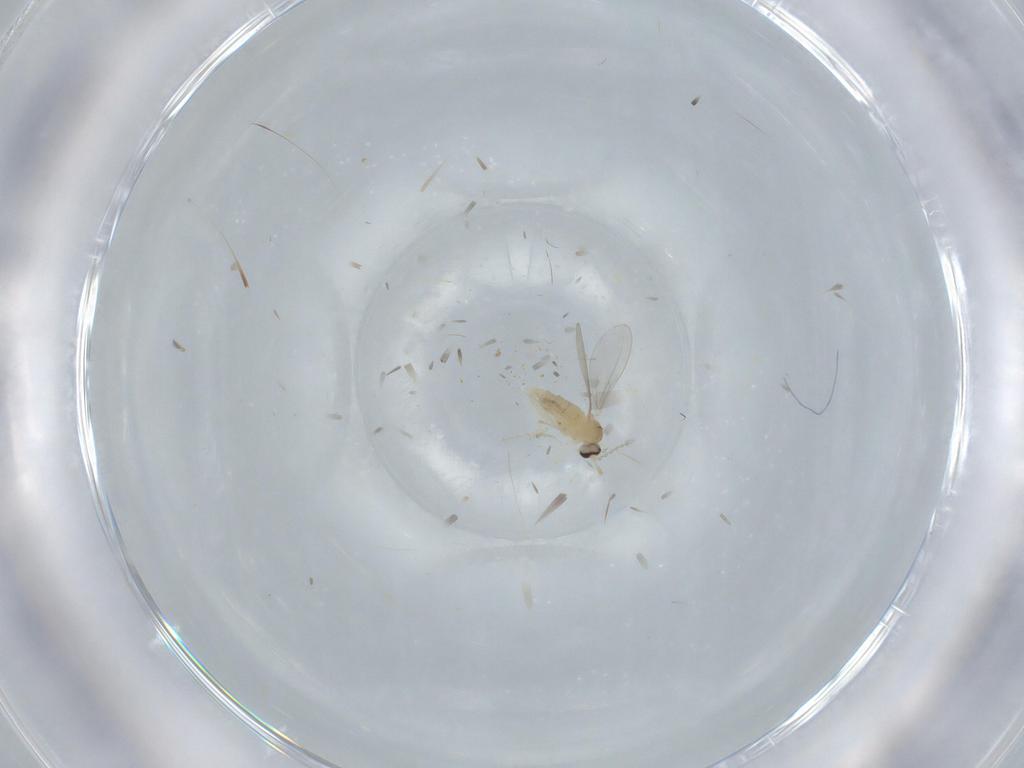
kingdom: Animalia
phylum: Arthropoda
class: Insecta
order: Diptera
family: Cecidomyiidae
